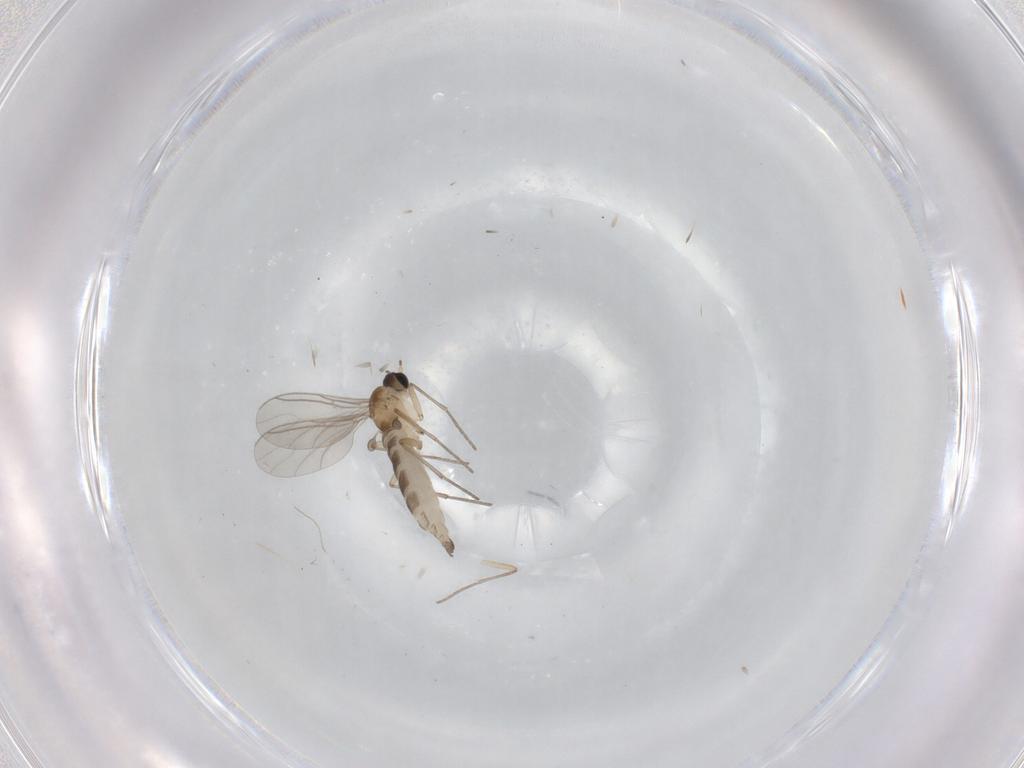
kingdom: Animalia
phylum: Arthropoda
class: Insecta
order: Diptera
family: Sciaridae
